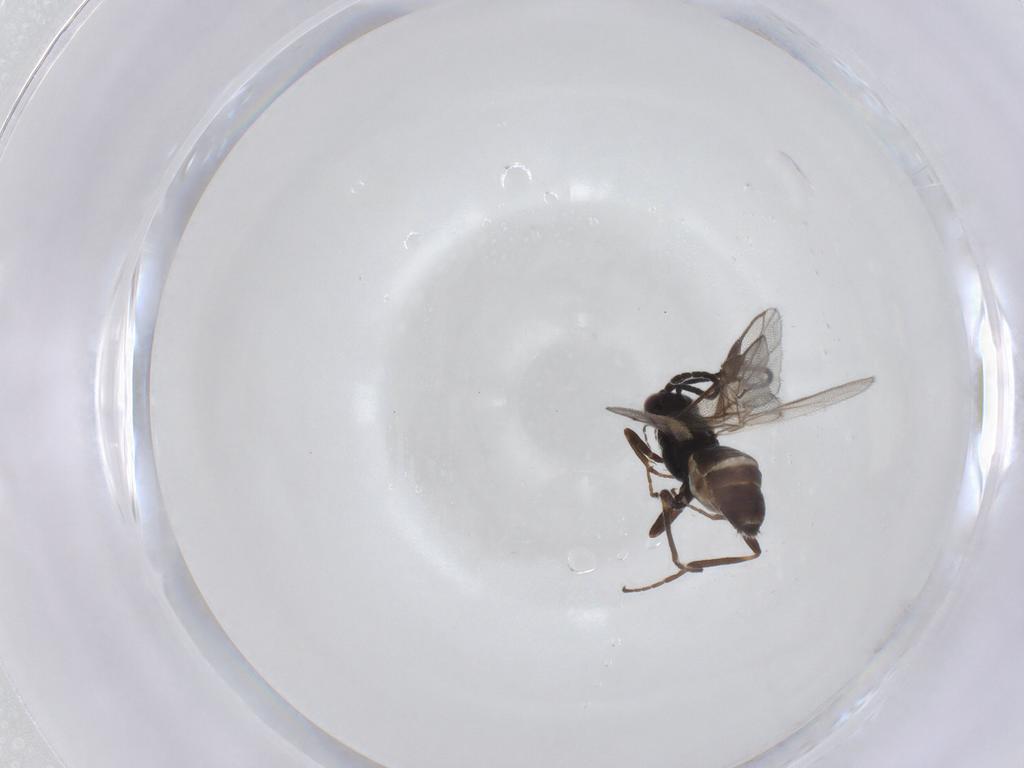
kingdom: Animalia
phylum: Arthropoda
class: Insecta
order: Hymenoptera
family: Braconidae
